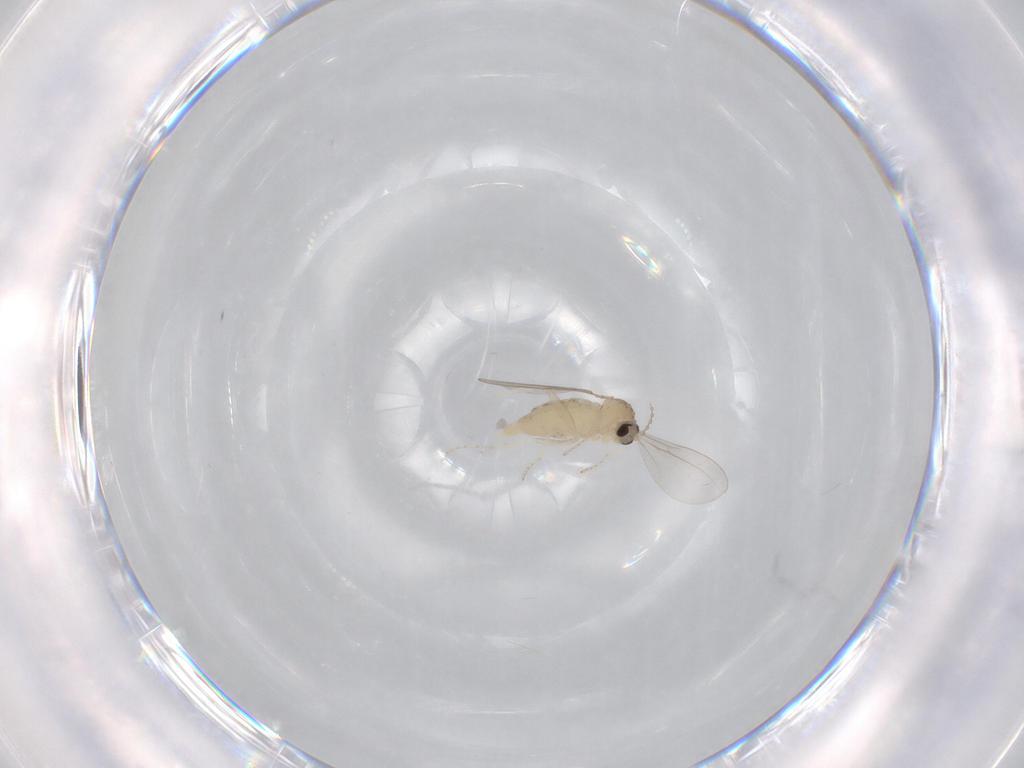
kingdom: Animalia
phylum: Arthropoda
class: Insecta
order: Diptera
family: Cecidomyiidae
